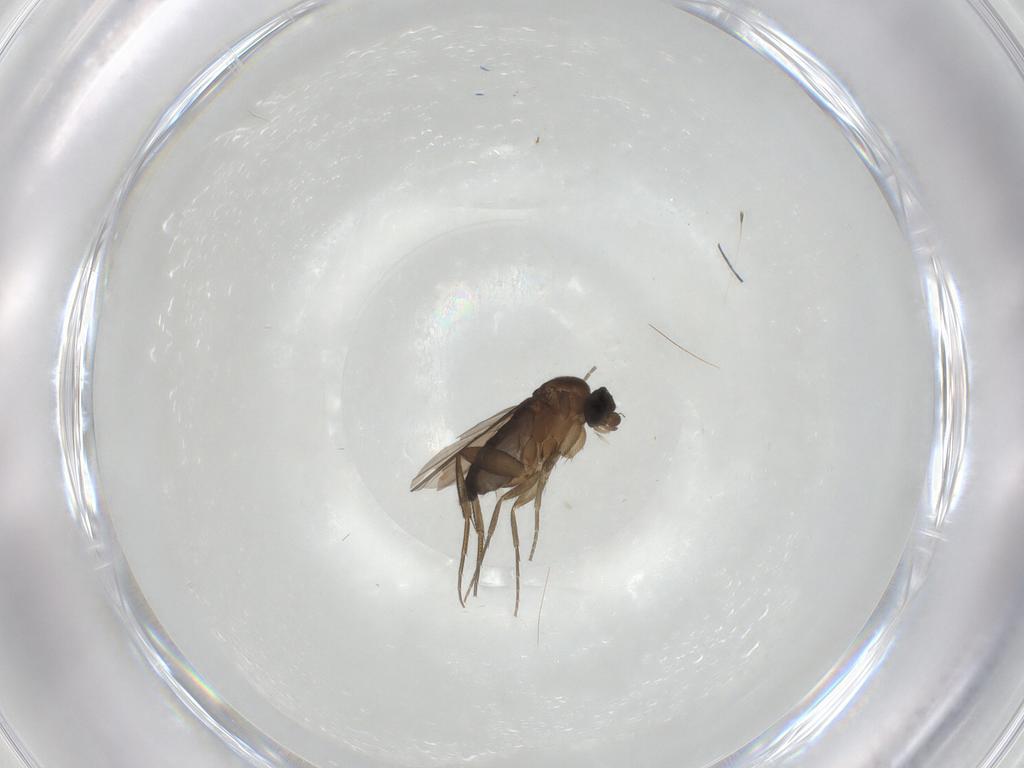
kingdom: Animalia
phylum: Arthropoda
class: Insecta
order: Diptera
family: Phoridae
